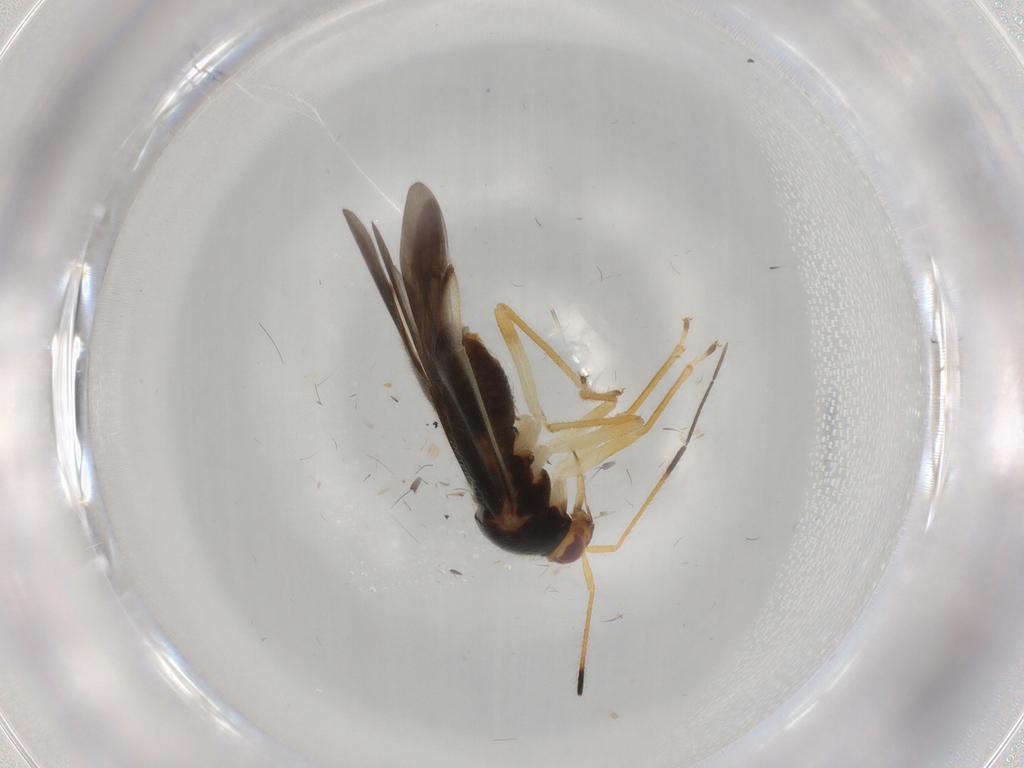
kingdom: Animalia
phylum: Arthropoda
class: Insecta
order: Hemiptera
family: Miridae
